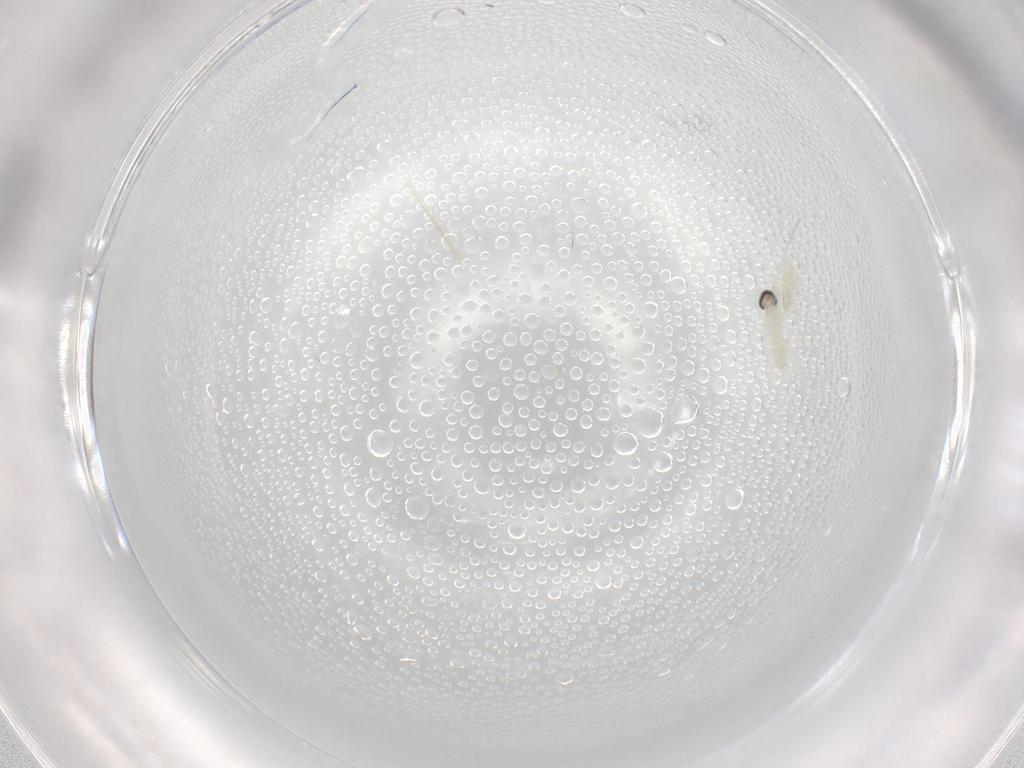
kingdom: Animalia
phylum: Arthropoda
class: Insecta
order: Diptera
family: Cecidomyiidae
